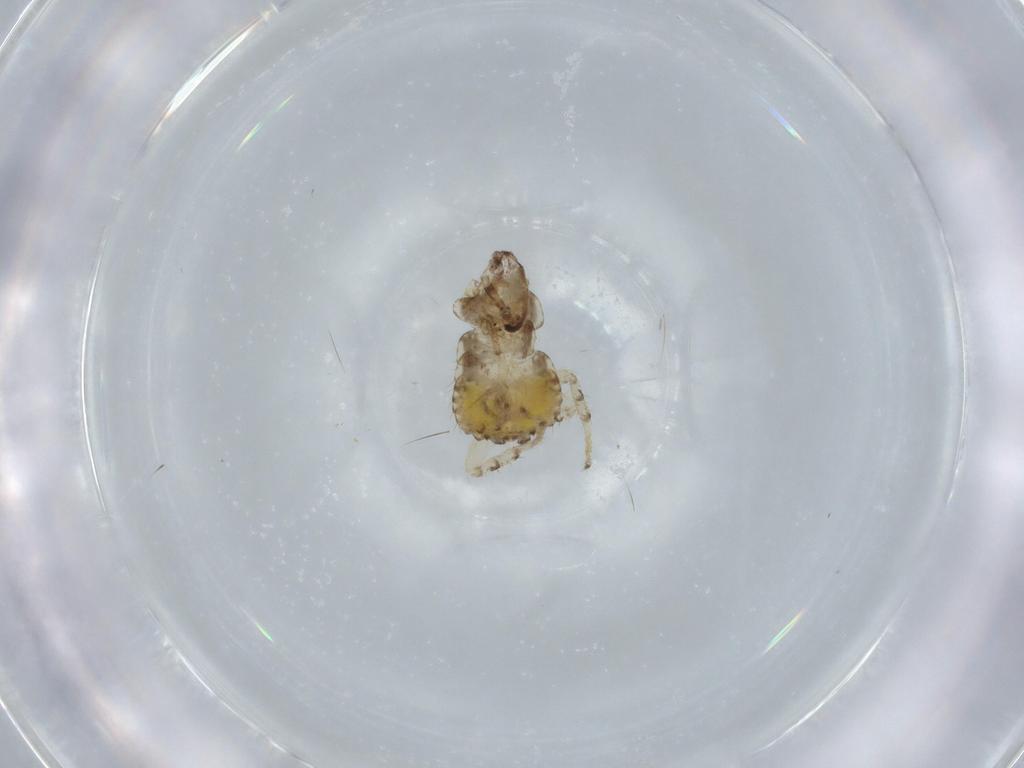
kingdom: Animalia
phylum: Arthropoda
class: Insecta
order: Blattodea
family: Ectobiidae
